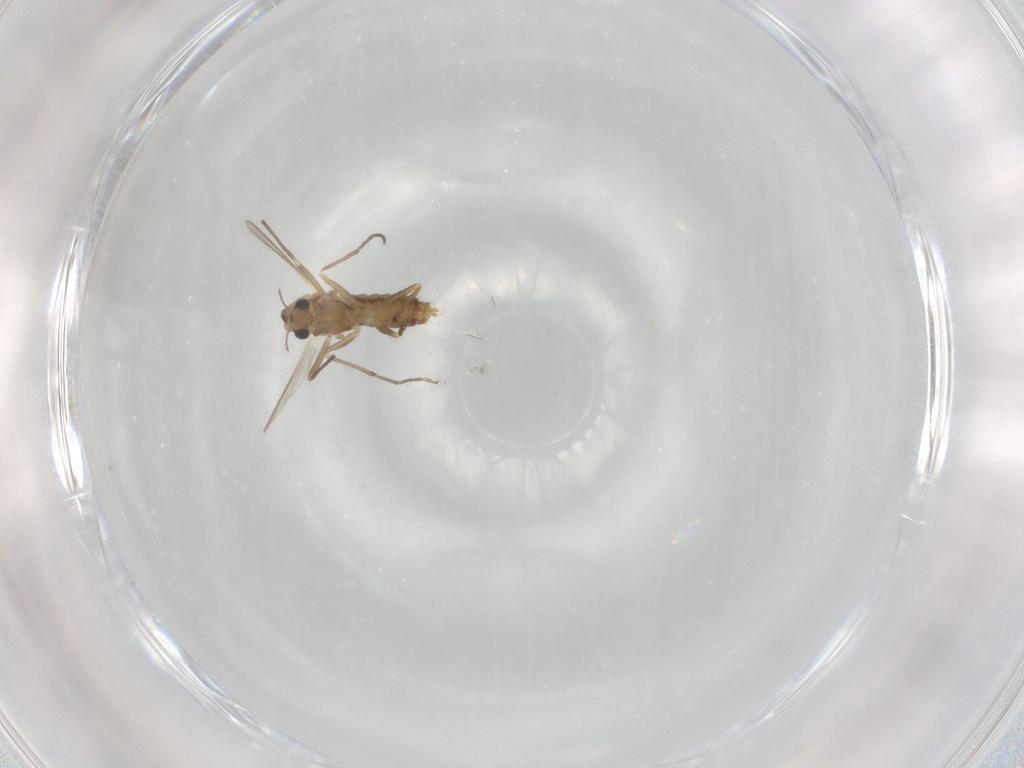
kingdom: Animalia
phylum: Arthropoda
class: Insecta
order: Diptera
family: Chironomidae
